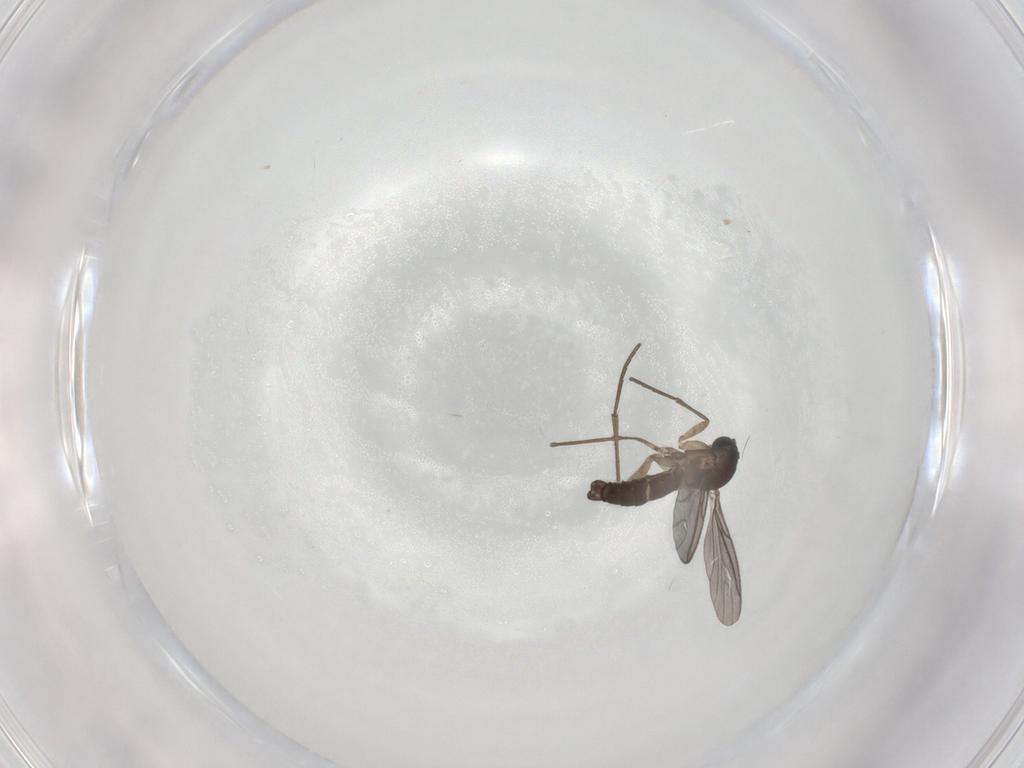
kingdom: Animalia
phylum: Arthropoda
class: Insecta
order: Diptera
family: Sciaridae
